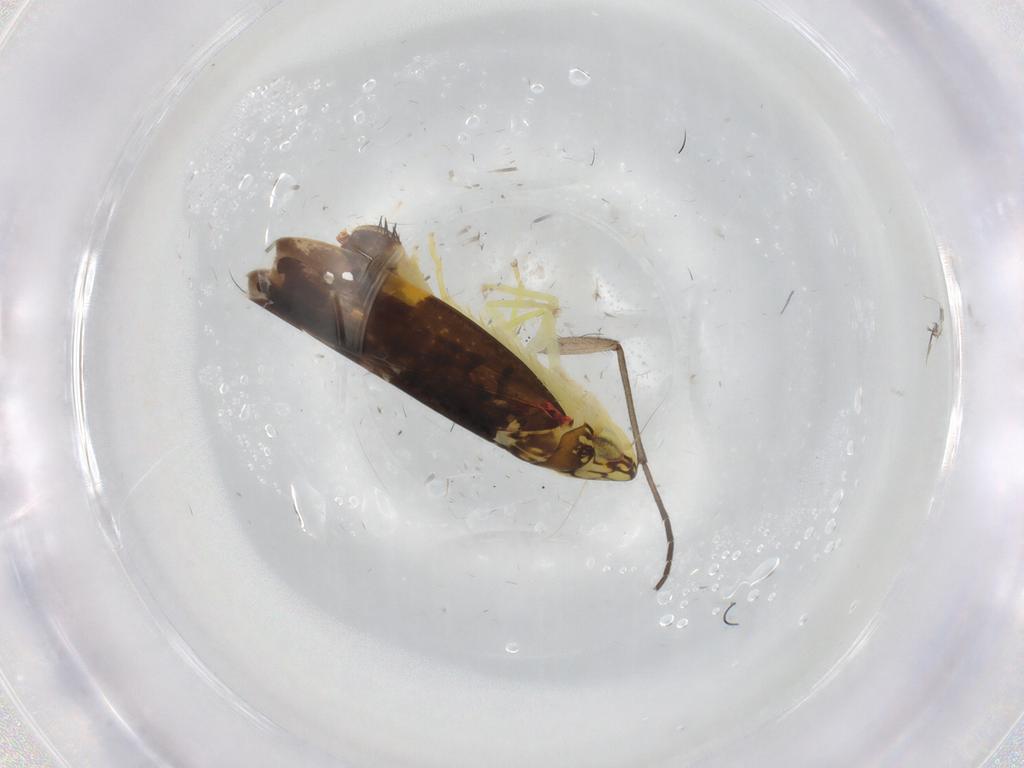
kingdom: Animalia
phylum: Arthropoda
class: Insecta
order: Hemiptera
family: Cicadellidae
